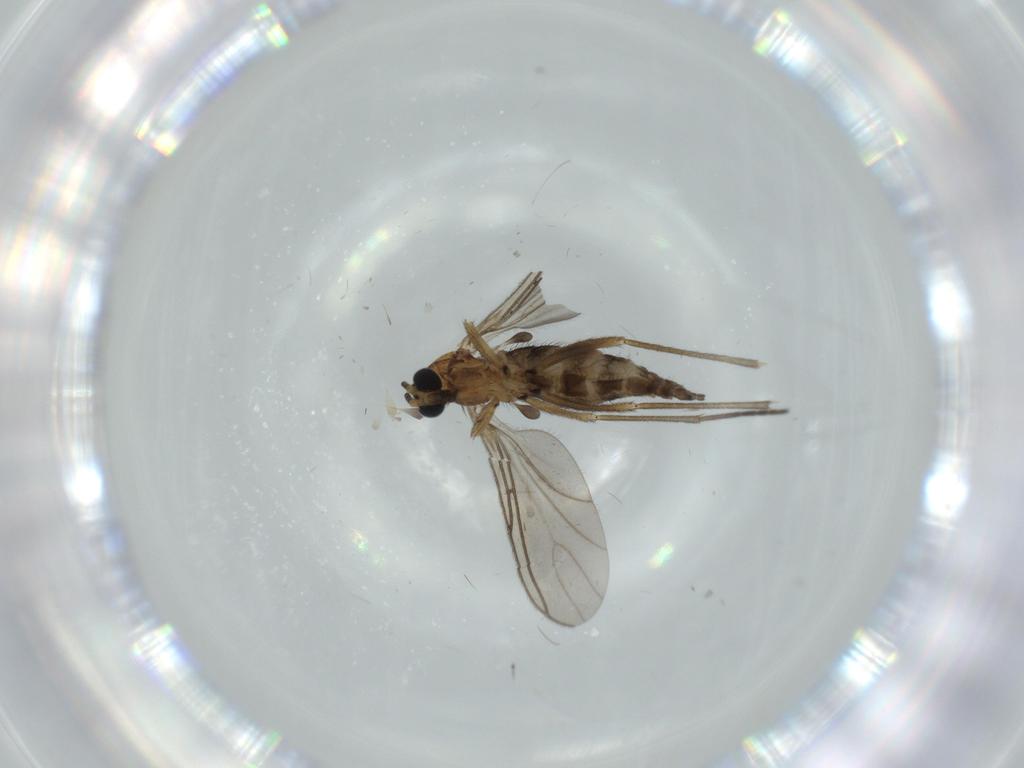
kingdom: Animalia
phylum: Arthropoda
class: Insecta
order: Diptera
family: Sciaridae
